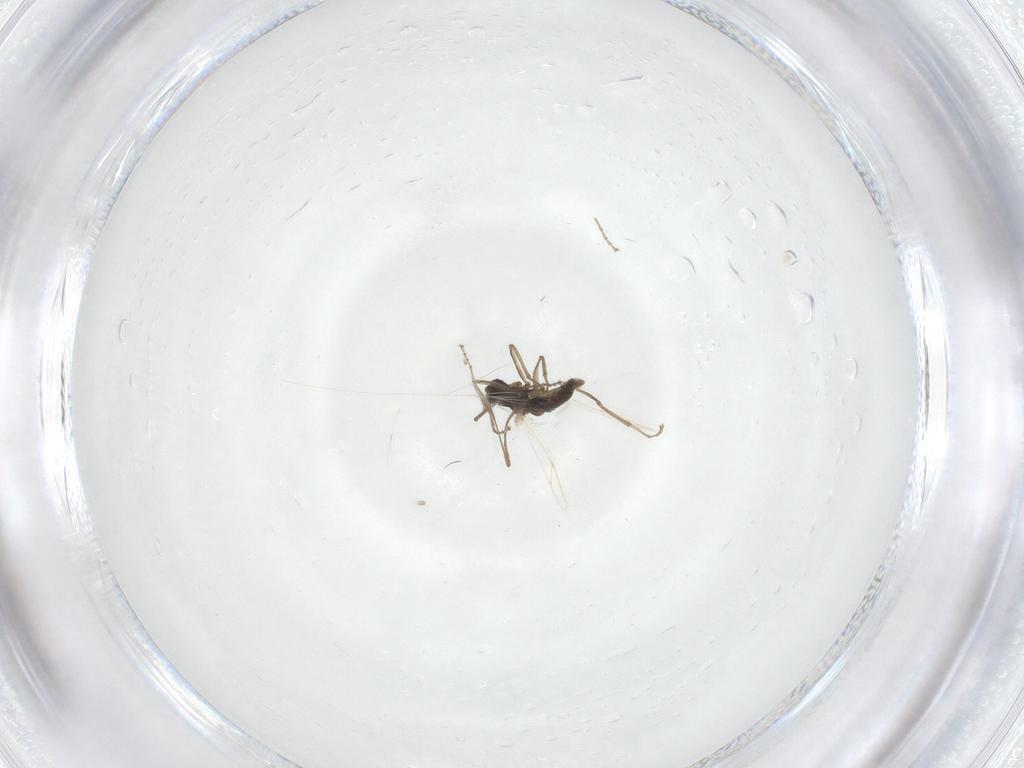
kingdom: Animalia
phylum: Arthropoda
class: Insecta
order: Diptera
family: Cecidomyiidae
